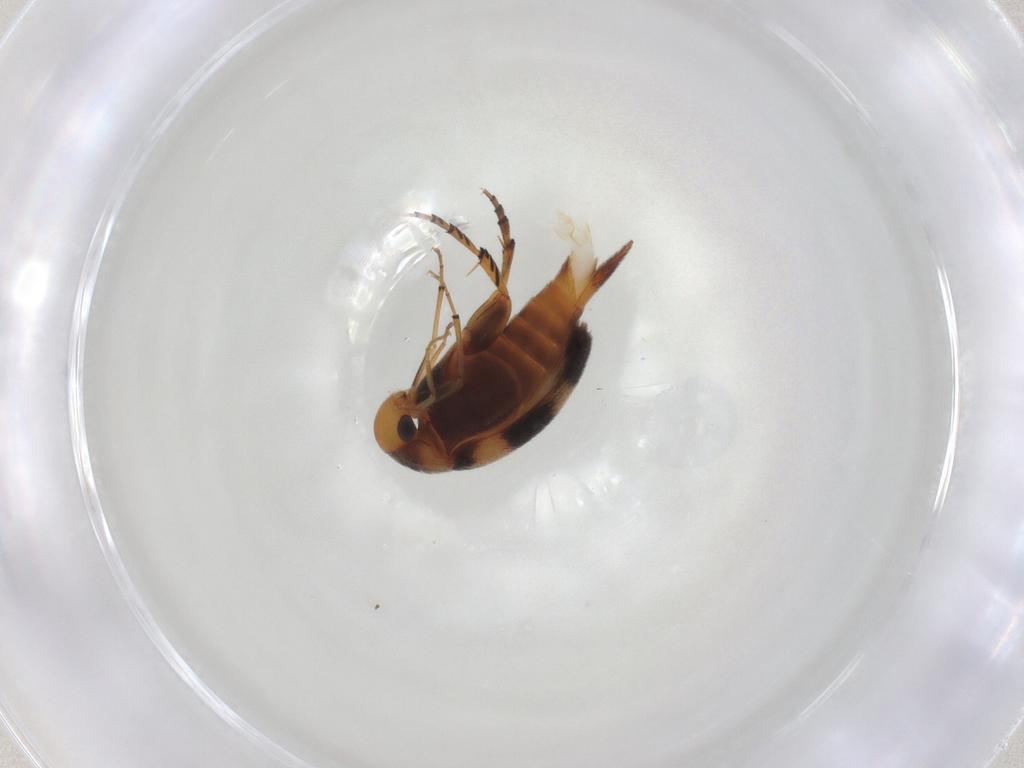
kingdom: Animalia
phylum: Arthropoda
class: Insecta
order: Coleoptera
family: Mordellidae
